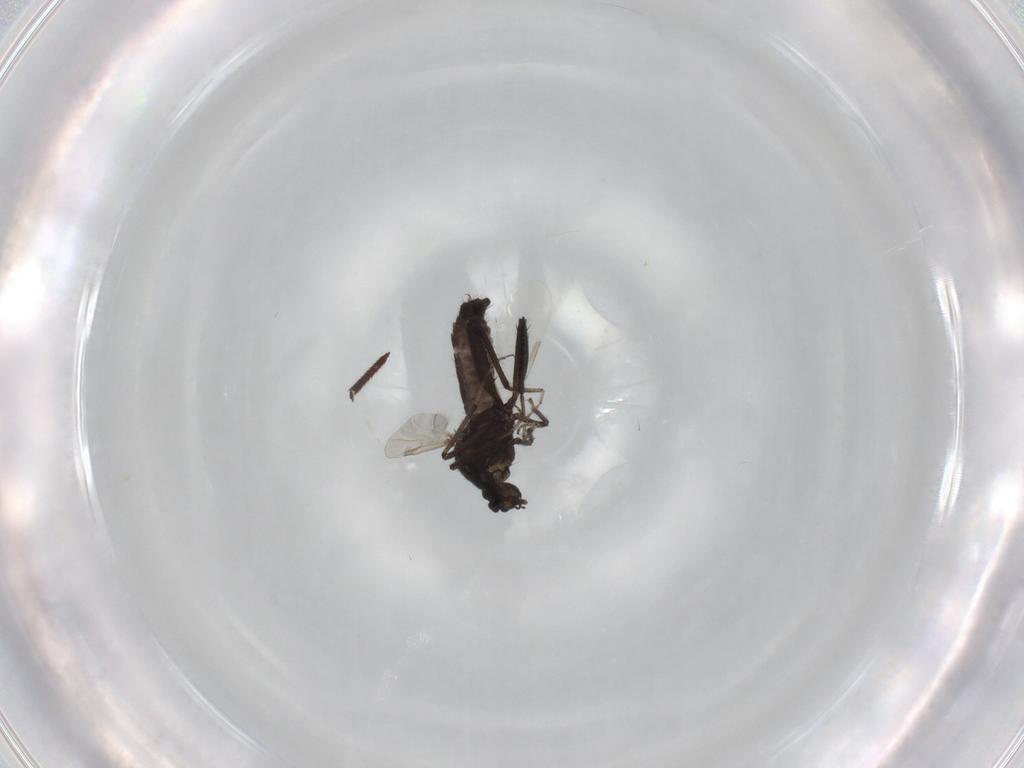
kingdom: Animalia
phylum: Arthropoda
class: Insecta
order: Diptera
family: Ceratopogonidae
